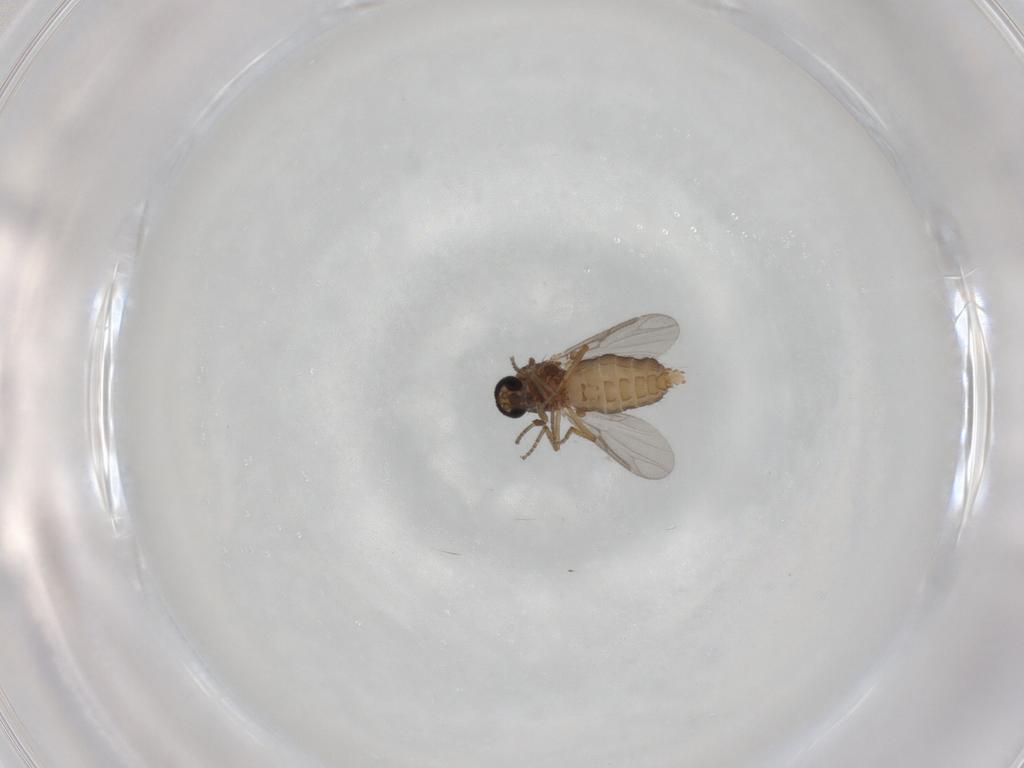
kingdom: Animalia
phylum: Arthropoda
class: Insecta
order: Diptera
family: Ceratopogonidae
